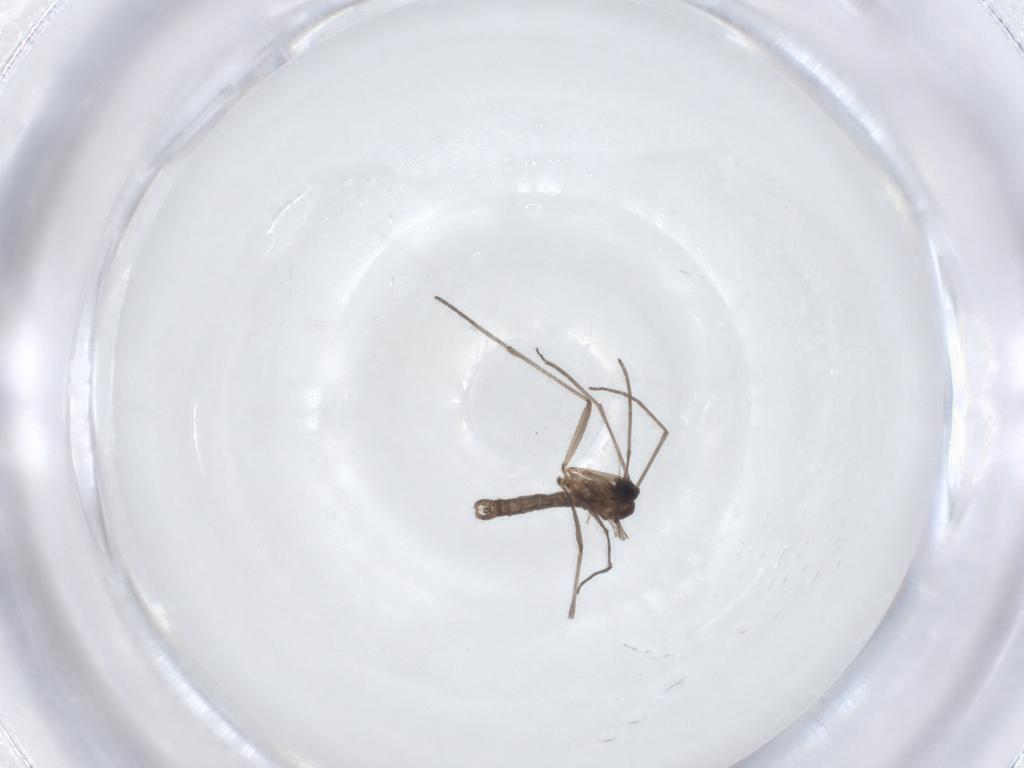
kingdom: Animalia
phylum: Arthropoda
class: Insecta
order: Diptera
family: Sciaridae
